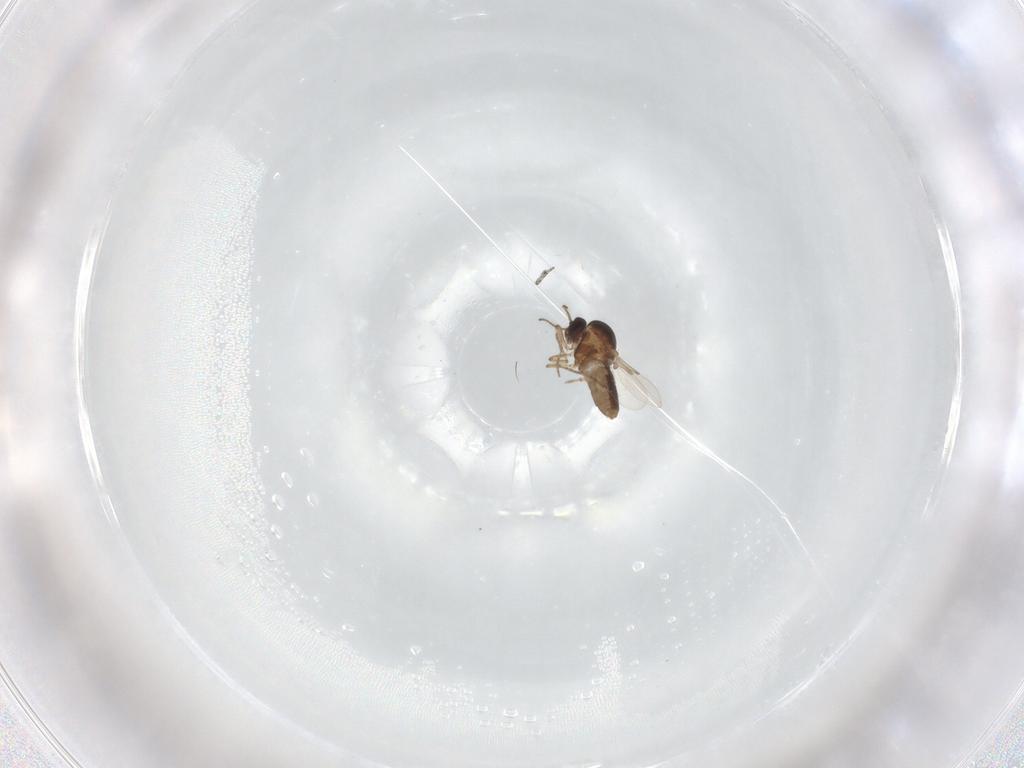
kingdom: Animalia
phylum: Arthropoda
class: Insecta
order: Diptera
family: Ceratopogonidae
